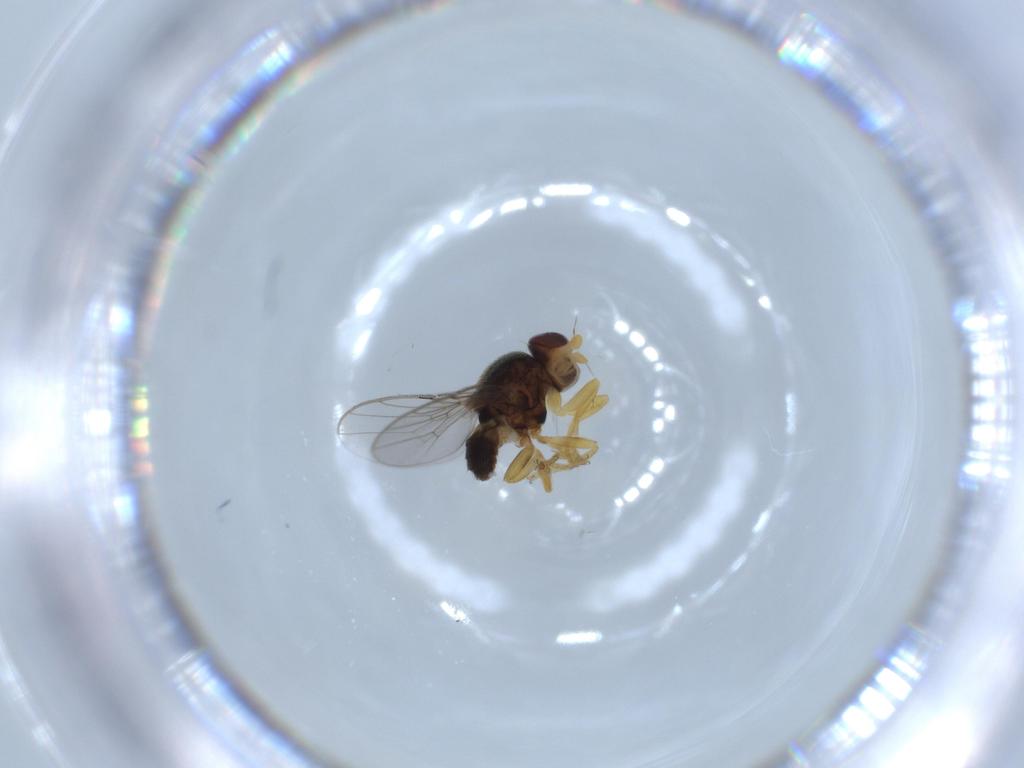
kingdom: Animalia
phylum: Arthropoda
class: Insecta
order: Diptera
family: Chloropidae
